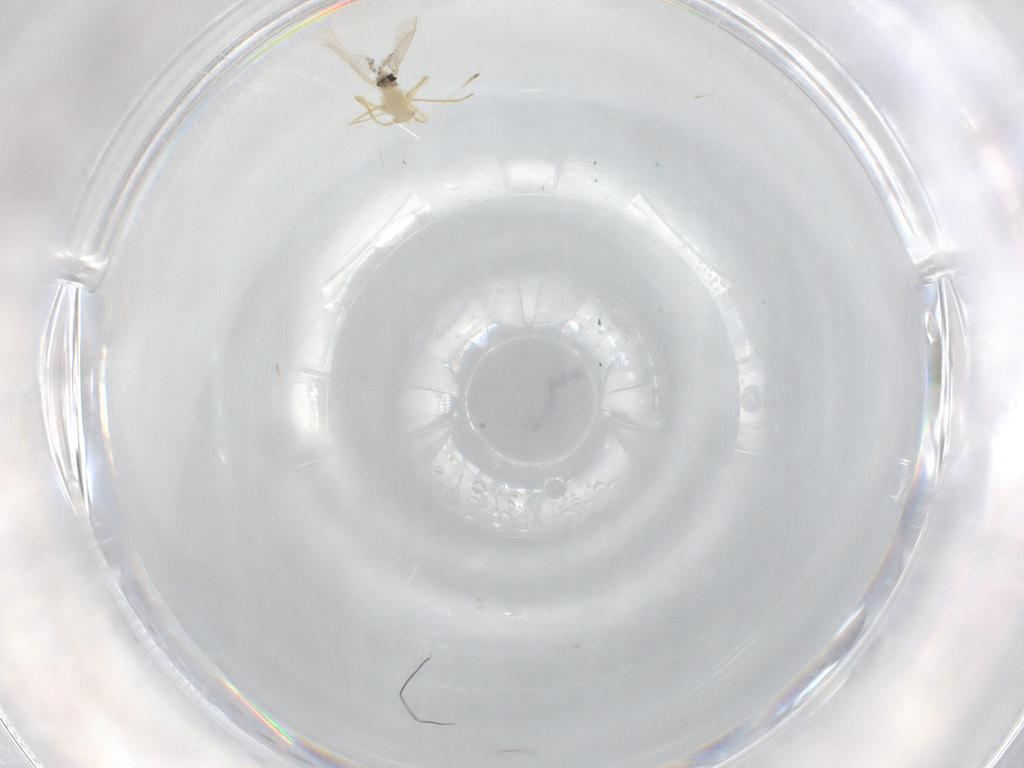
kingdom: Animalia
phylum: Arthropoda
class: Insecta
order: Diptera
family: Cecidomyiidae
